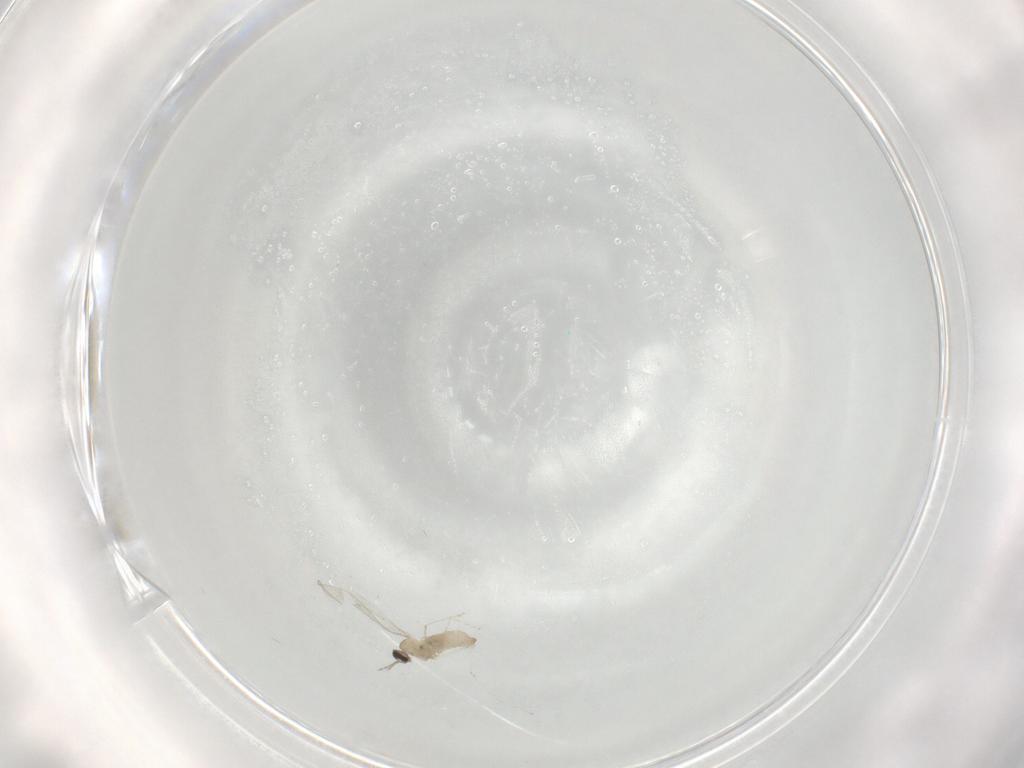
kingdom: Animalia
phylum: Arthropoda
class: Insecta
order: Diptera
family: Cecidomyiidae
